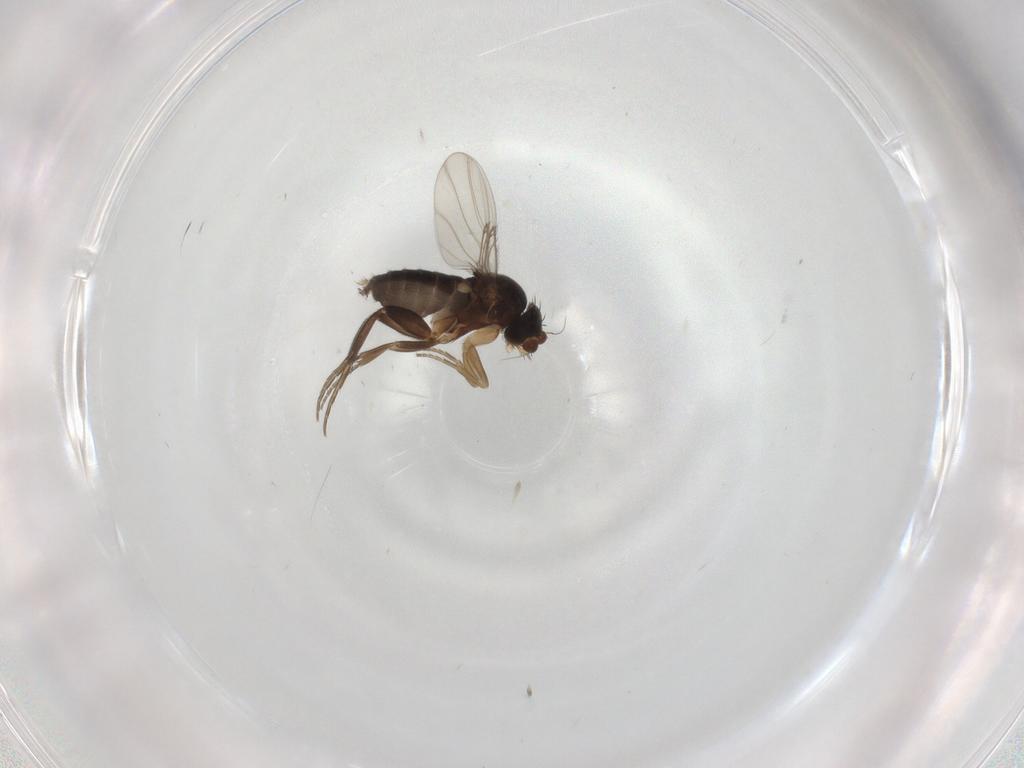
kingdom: Animalia
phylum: Arthropoda
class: Insecta
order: Diptera
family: Phoridae
